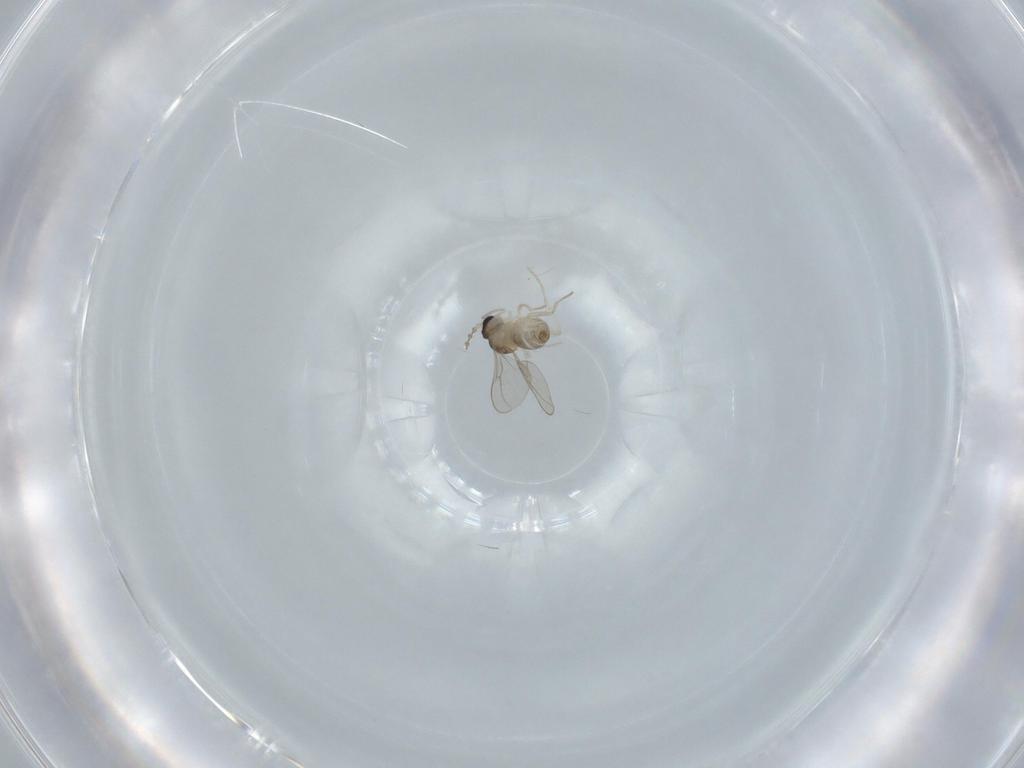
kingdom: Animalia
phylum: Arthropoda
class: Insecta
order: Diptera
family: Cecidomyiidae
